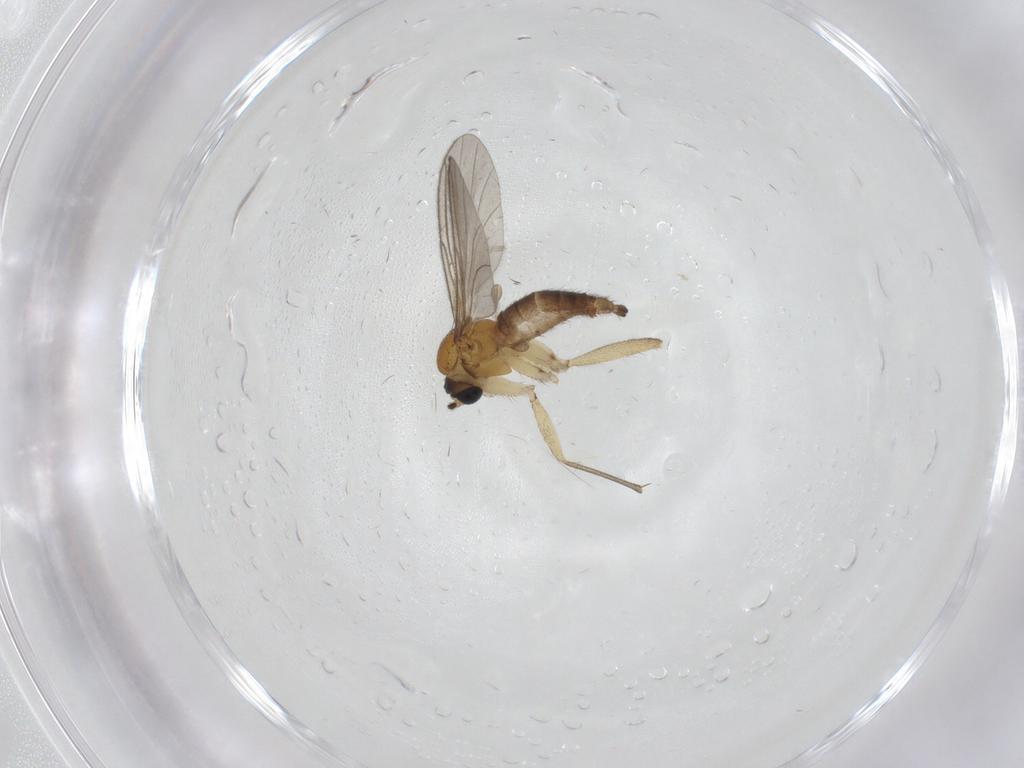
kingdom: Animalia
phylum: Arthropoda
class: Insecta
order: Diptera
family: Sciaridae
